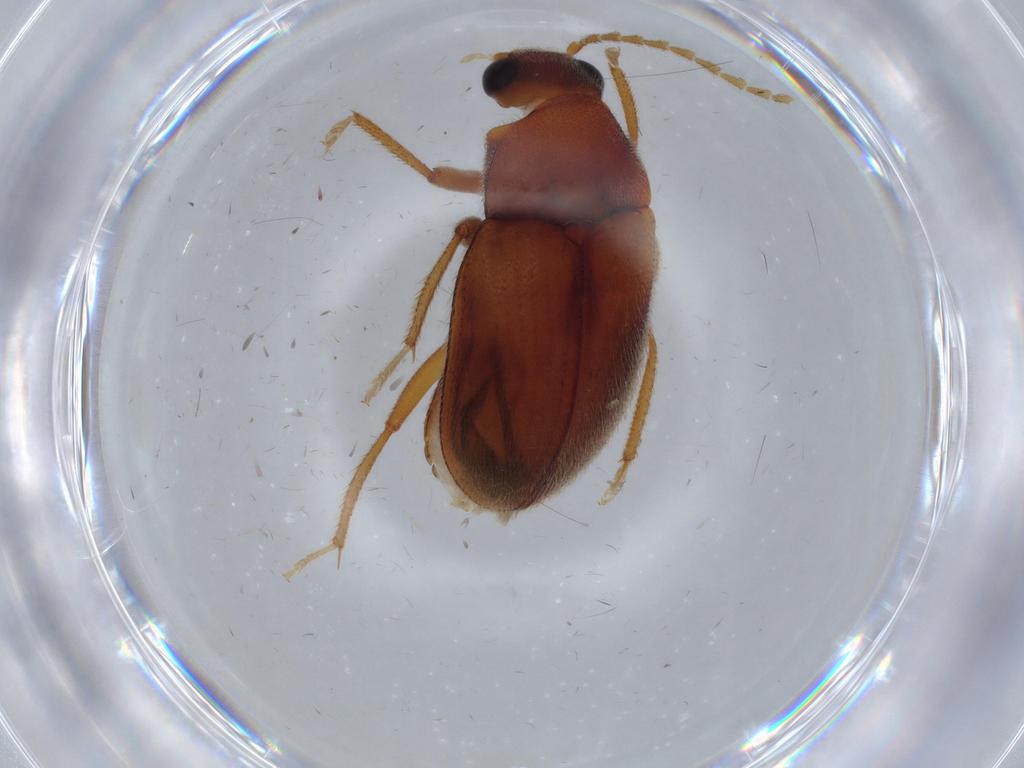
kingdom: Animalia
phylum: Arthropoda
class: Insecta
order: Coleoptera
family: Ptilodactylidae
